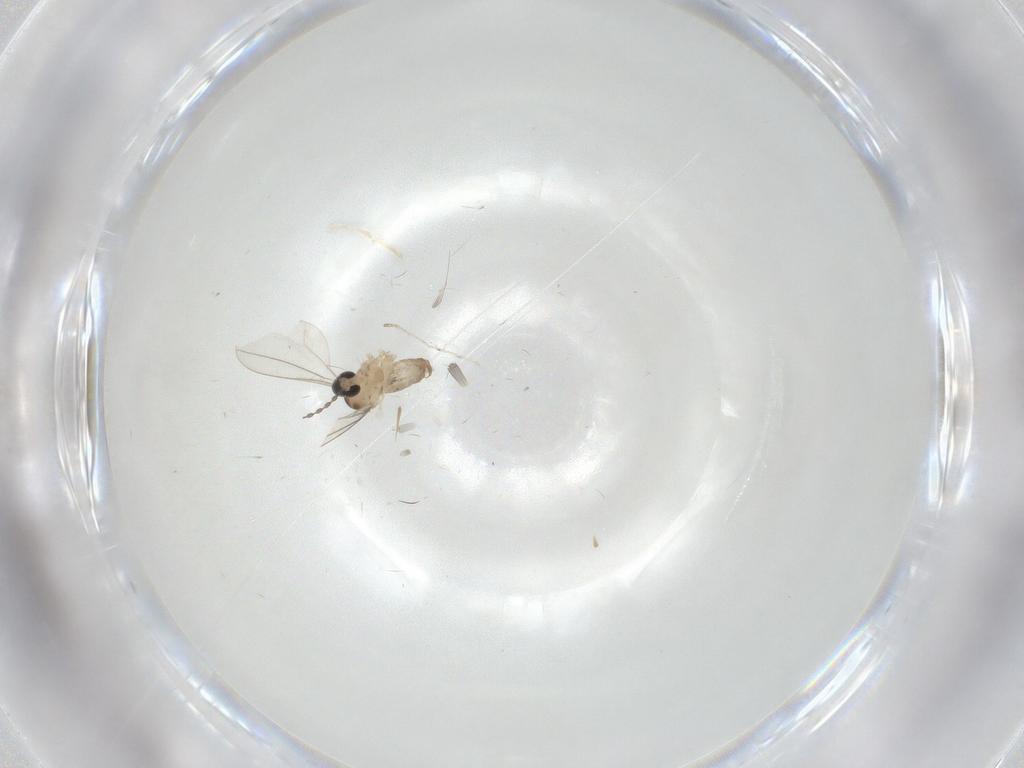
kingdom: Animalia
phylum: Arthropoda
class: Insecta
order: Diptera
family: Cecidomyiidae
